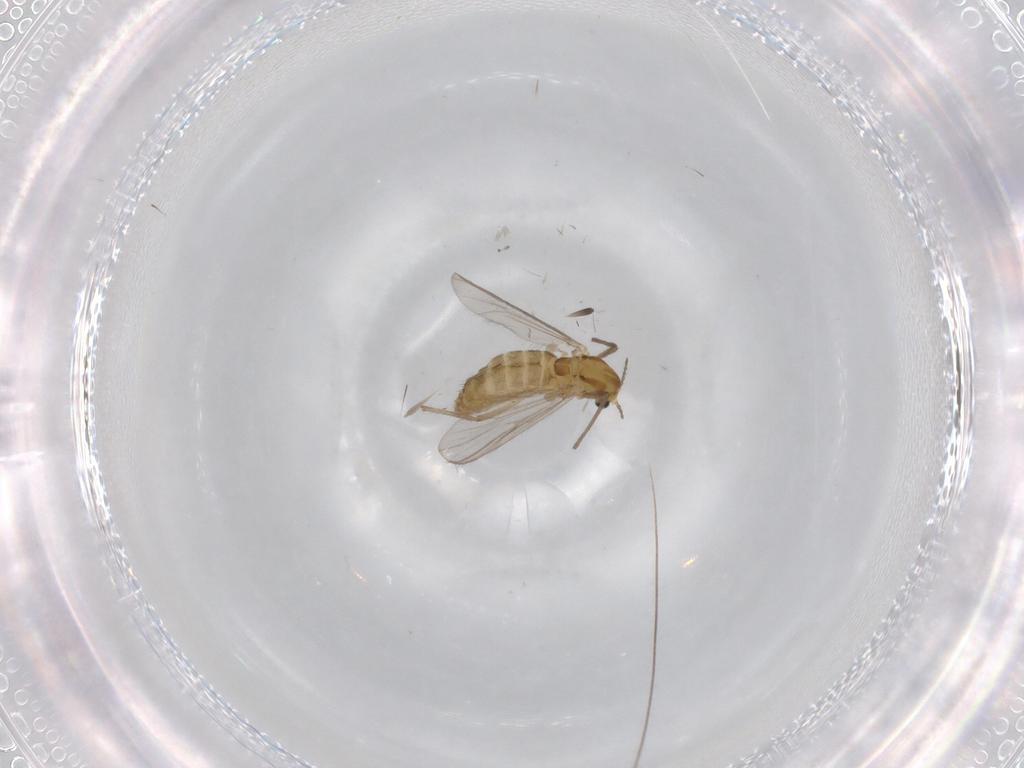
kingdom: Animalia
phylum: Arthropoda
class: Insecta
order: Diptera
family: Chironomidae
